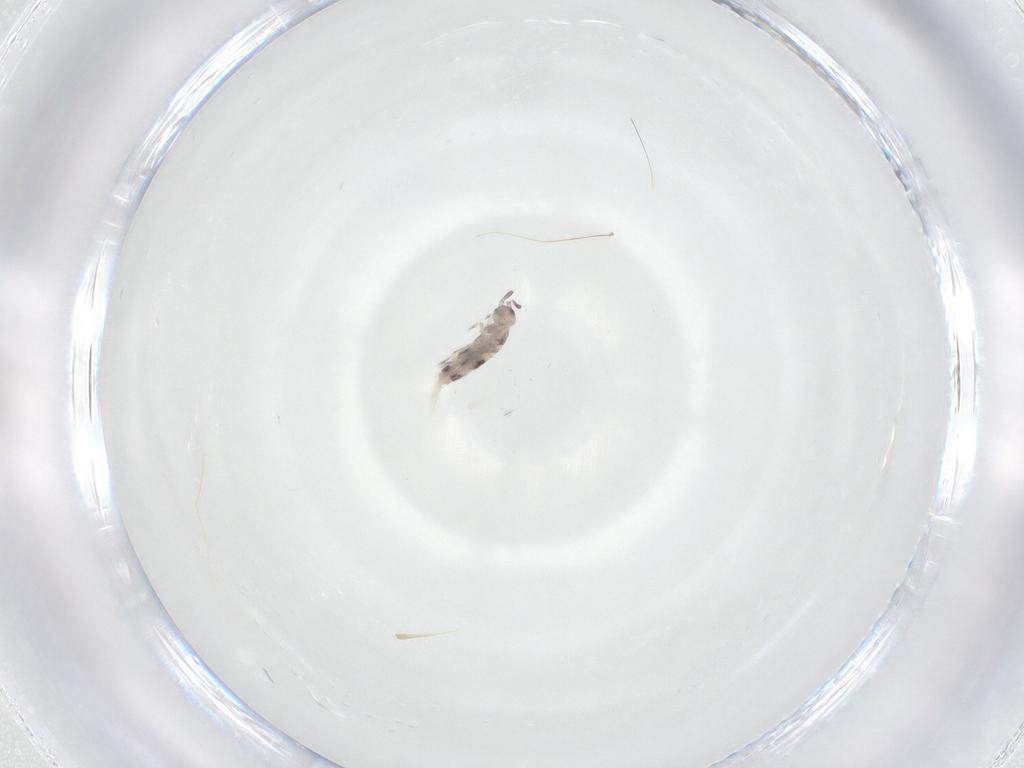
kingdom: Animalia
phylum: Arthropoda
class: Collembola
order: Entomobryomorpha
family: Entomobryidae
